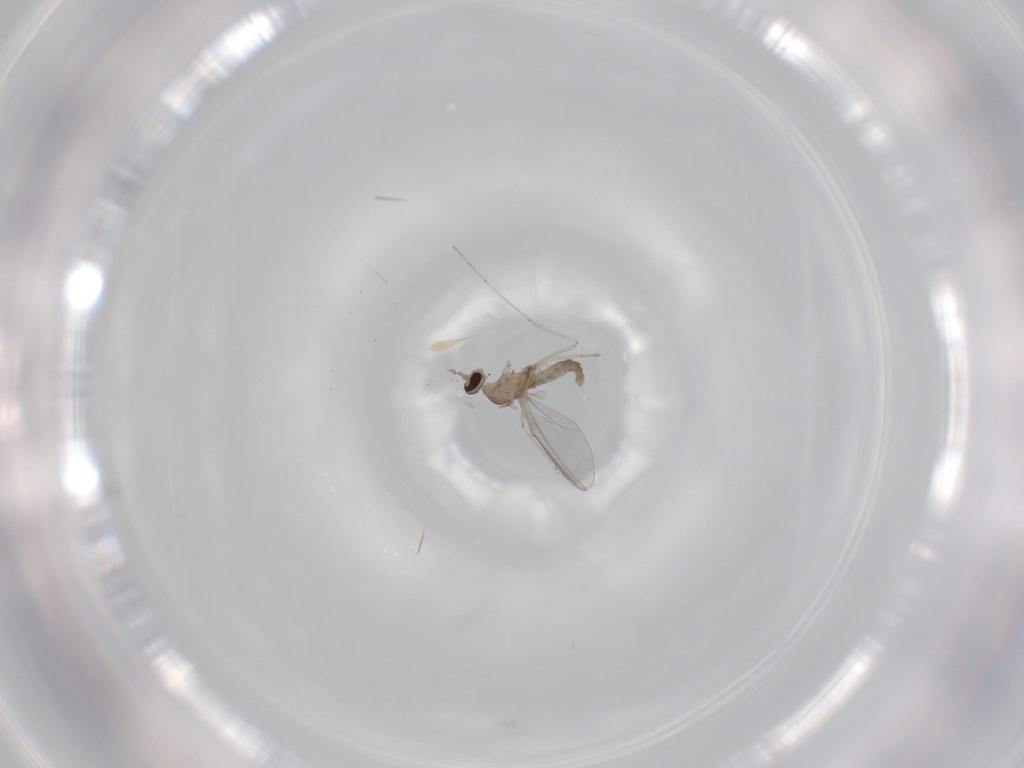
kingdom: Animalia
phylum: Arthropoda
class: Insecta
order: Diptera
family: Cecidomyiidae
